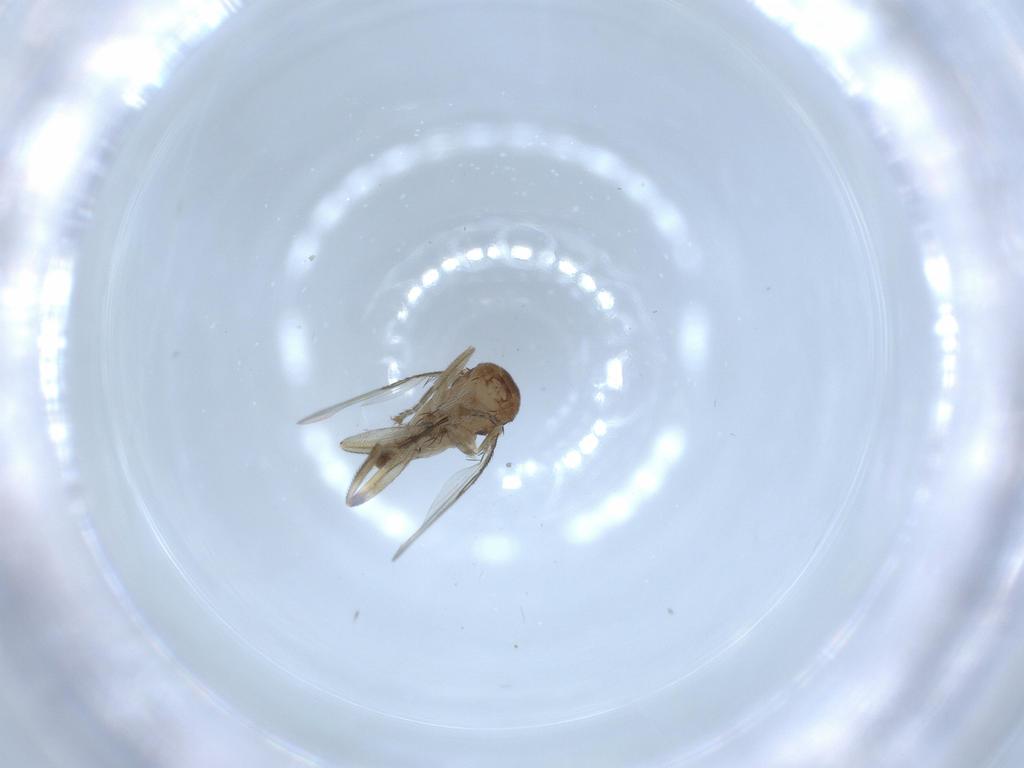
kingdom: Animalia
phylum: Arthropoda
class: Insecta
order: Diptera
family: Phoridae
